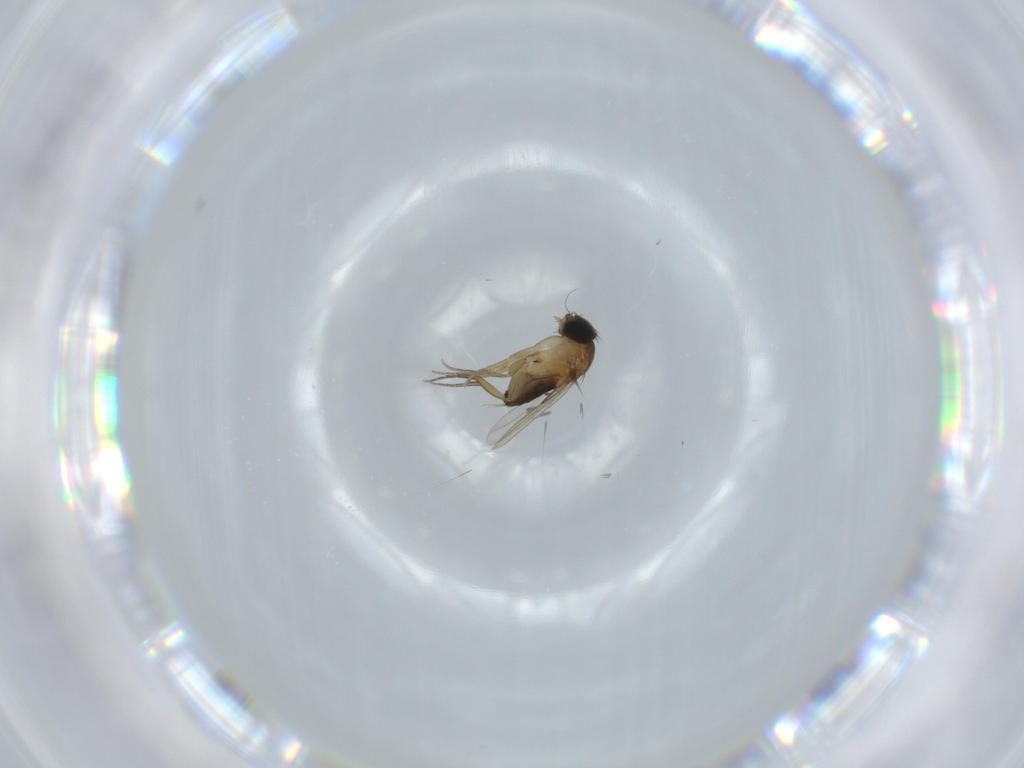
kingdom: Animalia
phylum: Arthropoda
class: Insecta
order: Diptera
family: Phoridae
